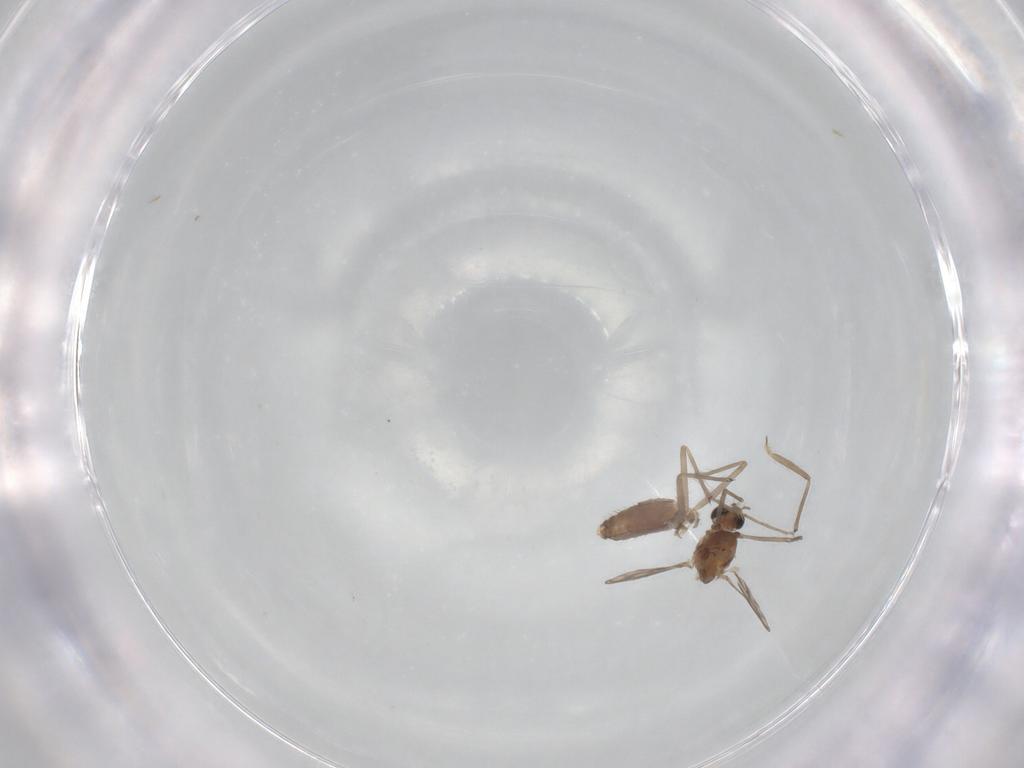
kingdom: Animalia
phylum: Arthropoda
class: Insecta
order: Diptera
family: Chironomidae
